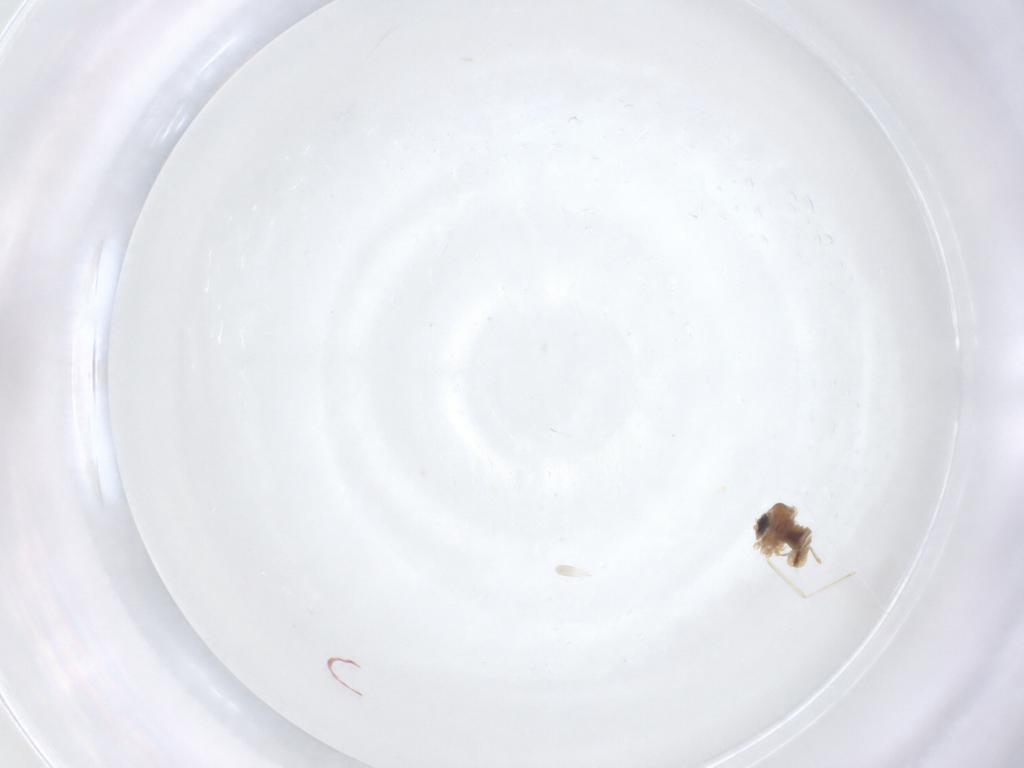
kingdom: Animalia
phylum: Arthropoda
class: Insecta
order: Diptera
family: Cecidomyiidae
